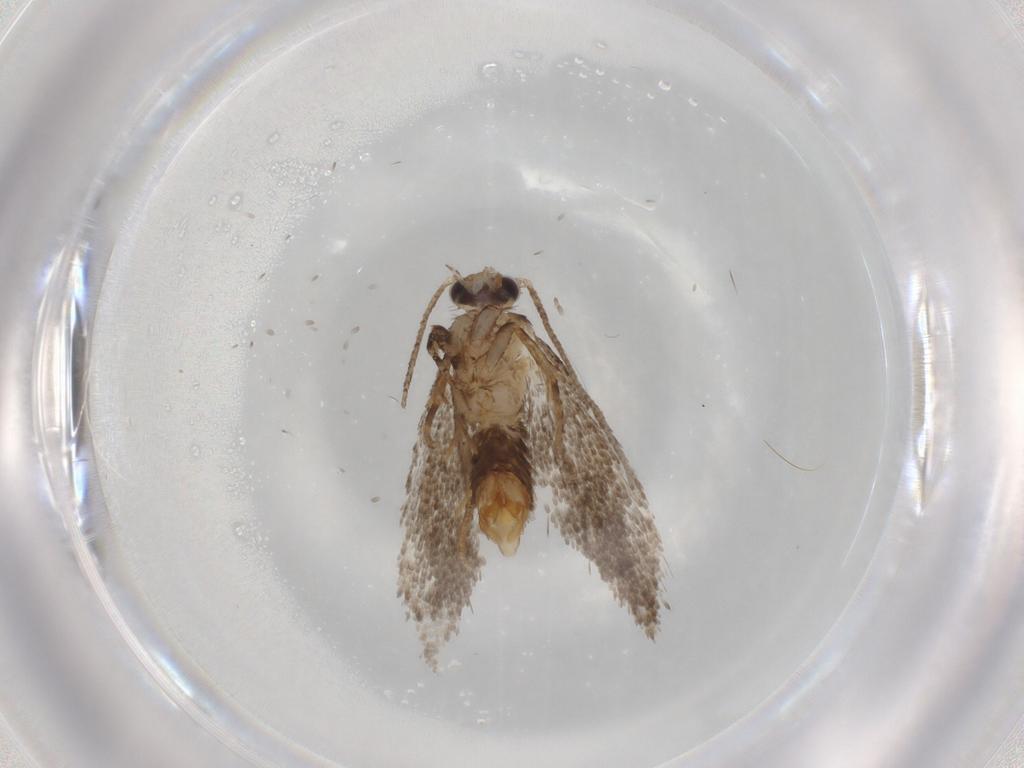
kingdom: Animalia
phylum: Arthropoda
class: Insecta
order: Lepidoptera
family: Tineidae
